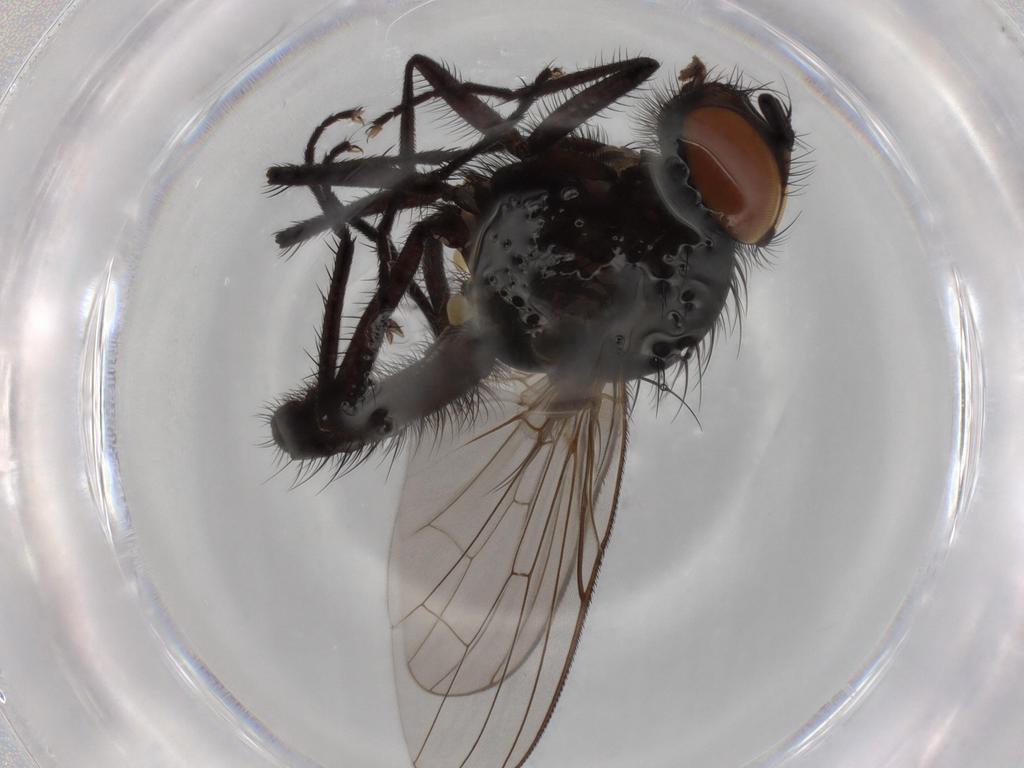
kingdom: Animalia
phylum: Arthropoda
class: Insecta
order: Diptera
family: Anthomyiidae
